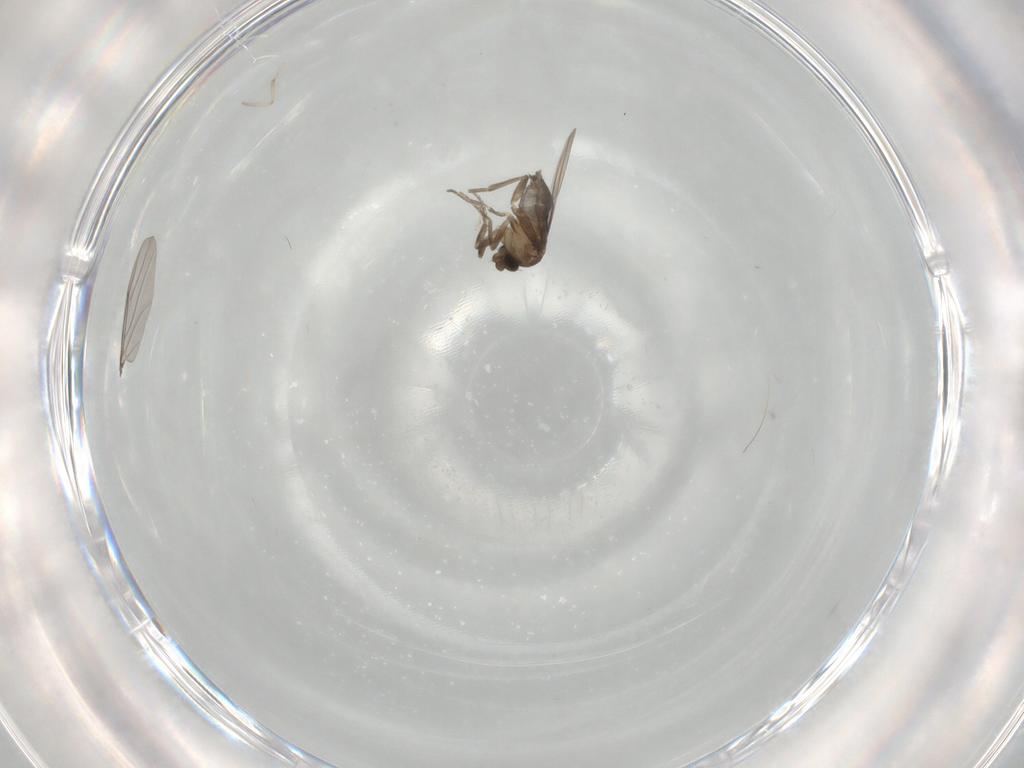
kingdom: Animalia
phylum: Arthropoda
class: Insecta
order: Diptera
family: Cecidomyiidae
